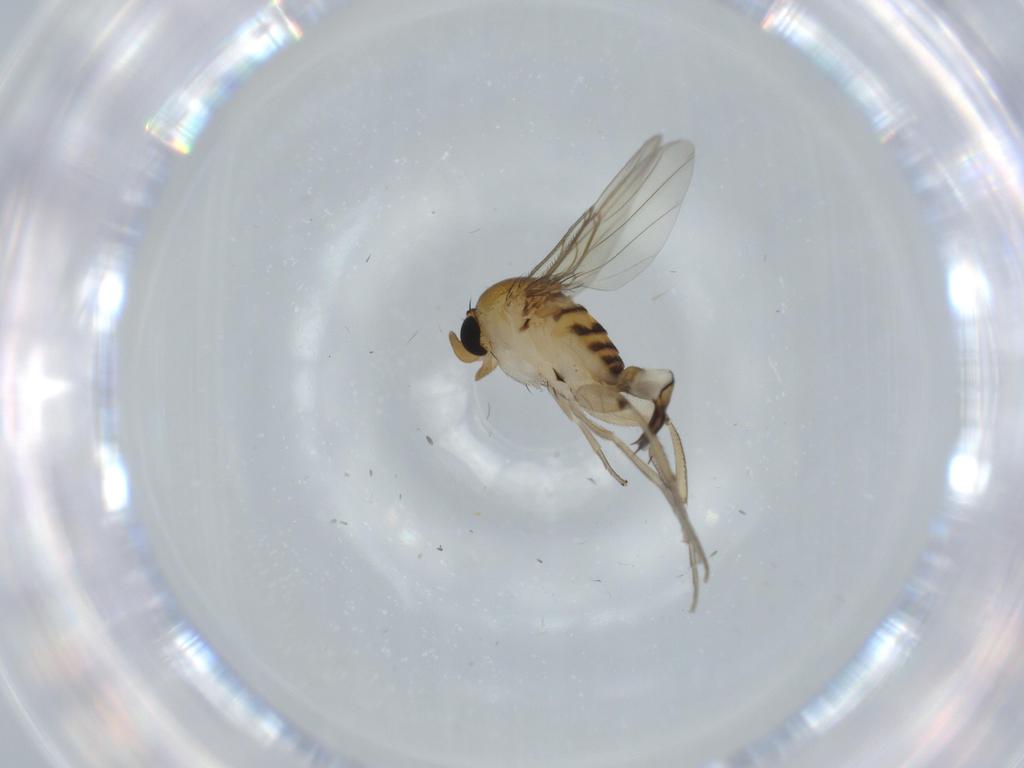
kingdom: Animalia
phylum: Arthropoda
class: Insecta
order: Diptera
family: Phoridae
